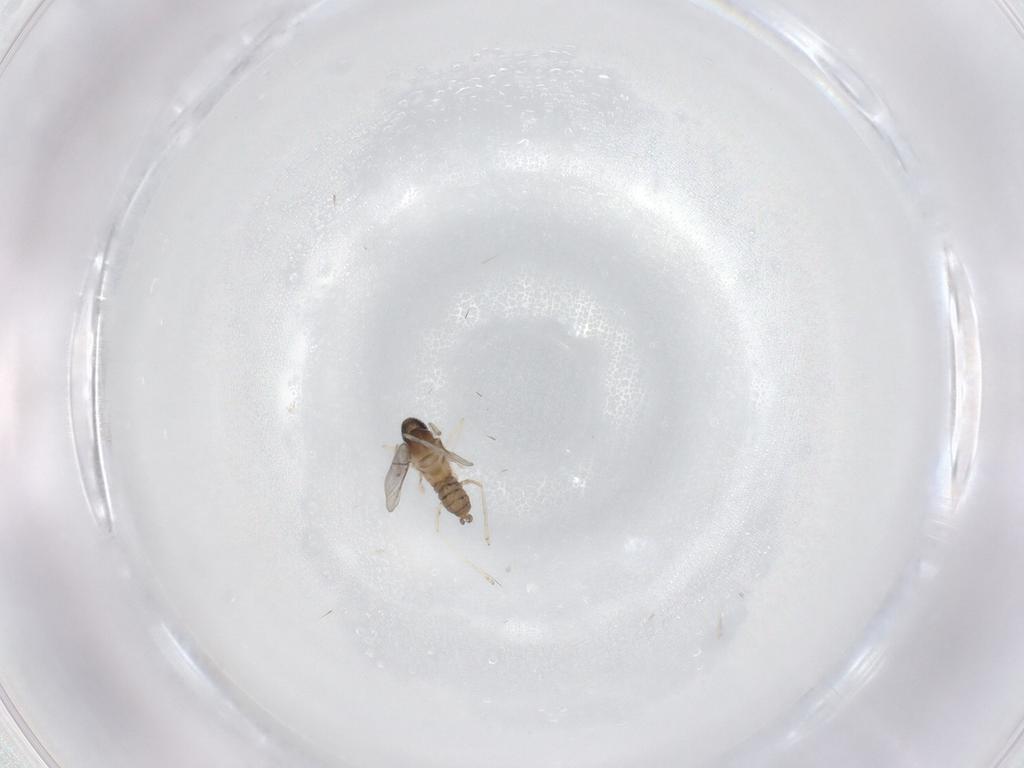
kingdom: Animalia
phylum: Arthropoda
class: Insecta
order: Diptera
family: Cecidomyiidae
